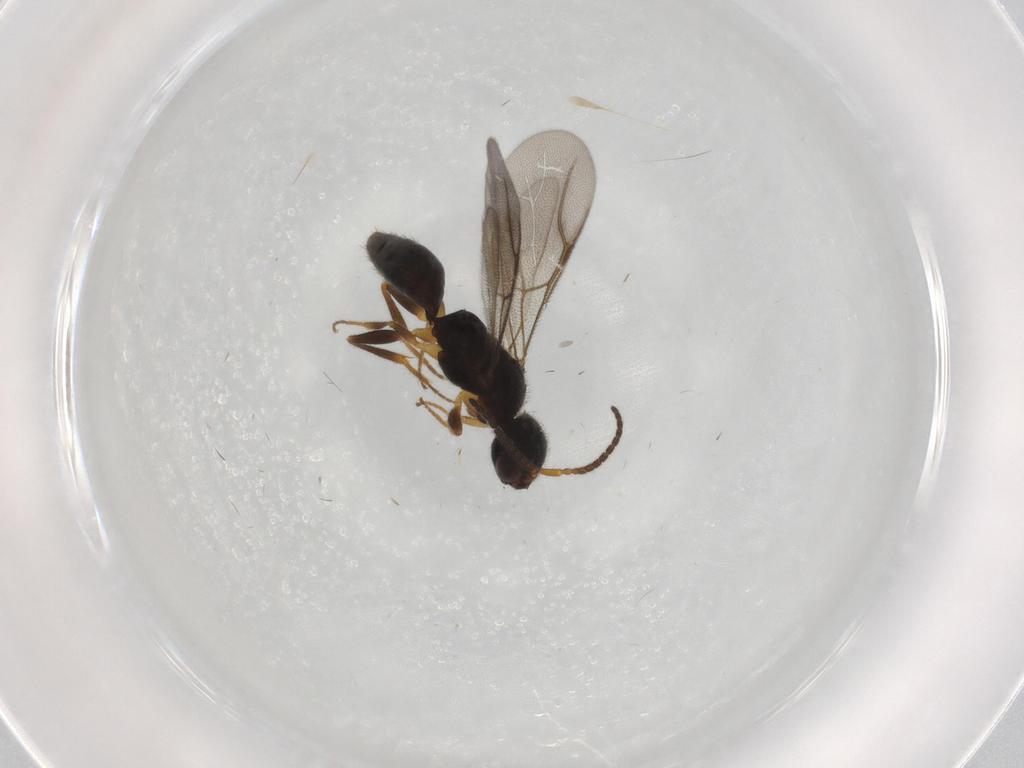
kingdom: Animalia
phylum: Arthropoda
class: Insecta
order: Hymenoptera
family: Bethylidae
